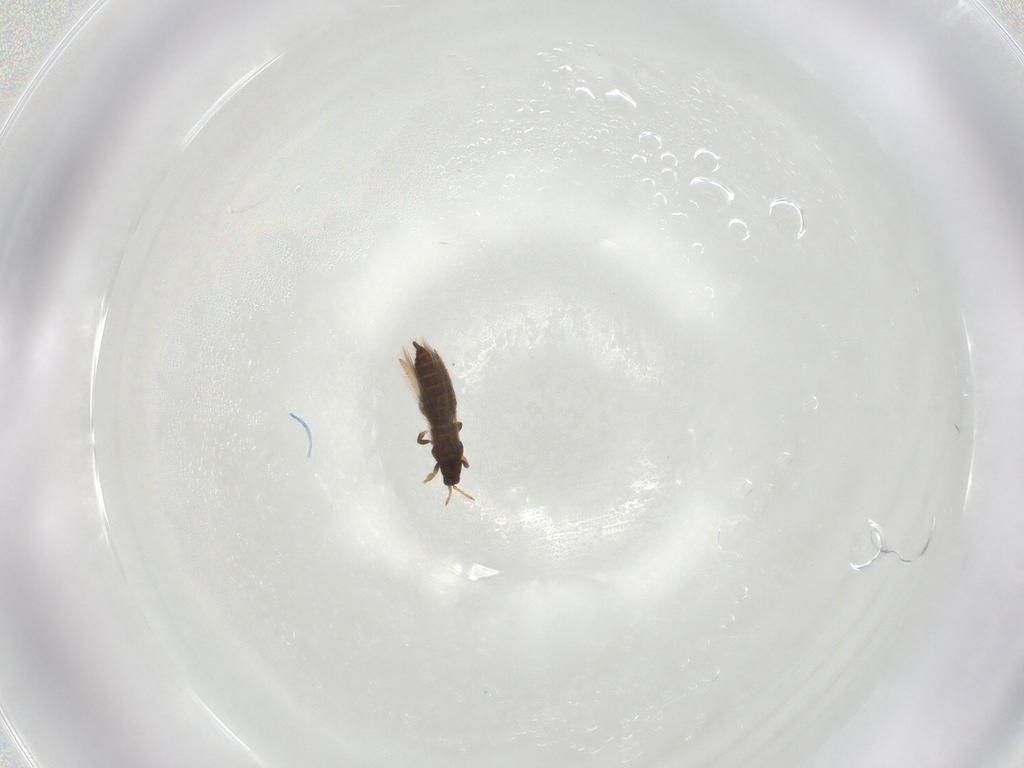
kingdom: Animalia
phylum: Arthropoda
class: Insecta
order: Thysanoptera
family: Thripidae
